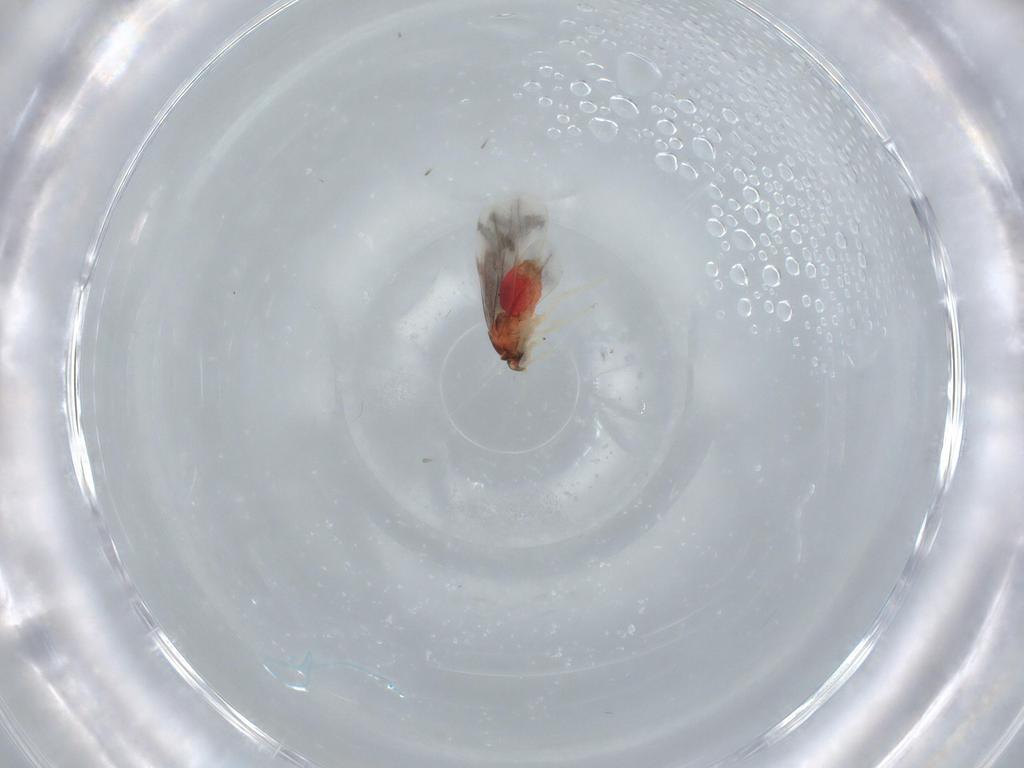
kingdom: Animalia
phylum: Arthropoda
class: Insecta
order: Hemiptera
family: Aleyrodidae
